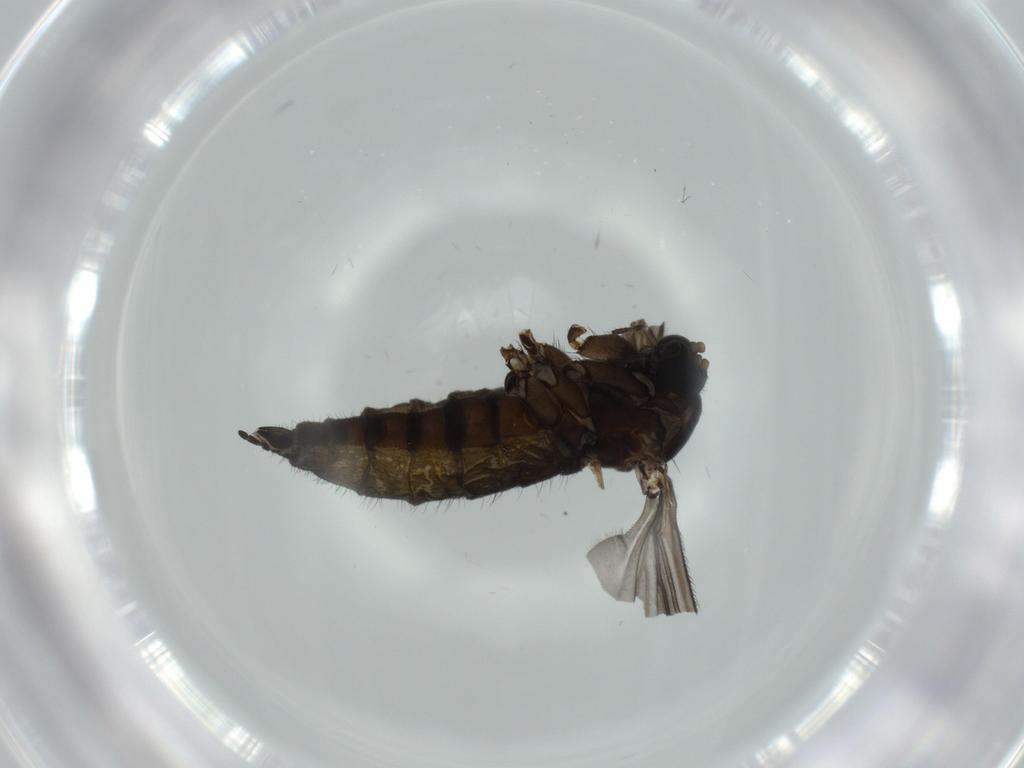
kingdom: Animalia
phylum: Arthropoda
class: Insecta
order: Diptera
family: Sciaridae
